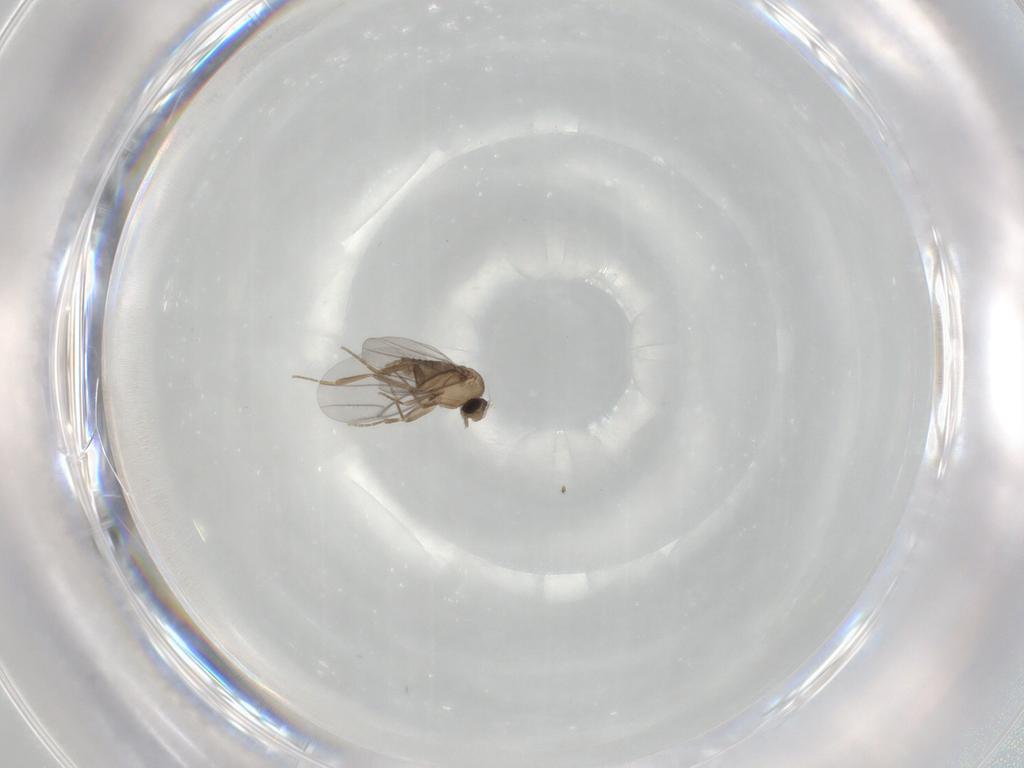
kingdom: Animalia
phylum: Arthropoda
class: Insecta
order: Diptera
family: Ceratopogonidae
